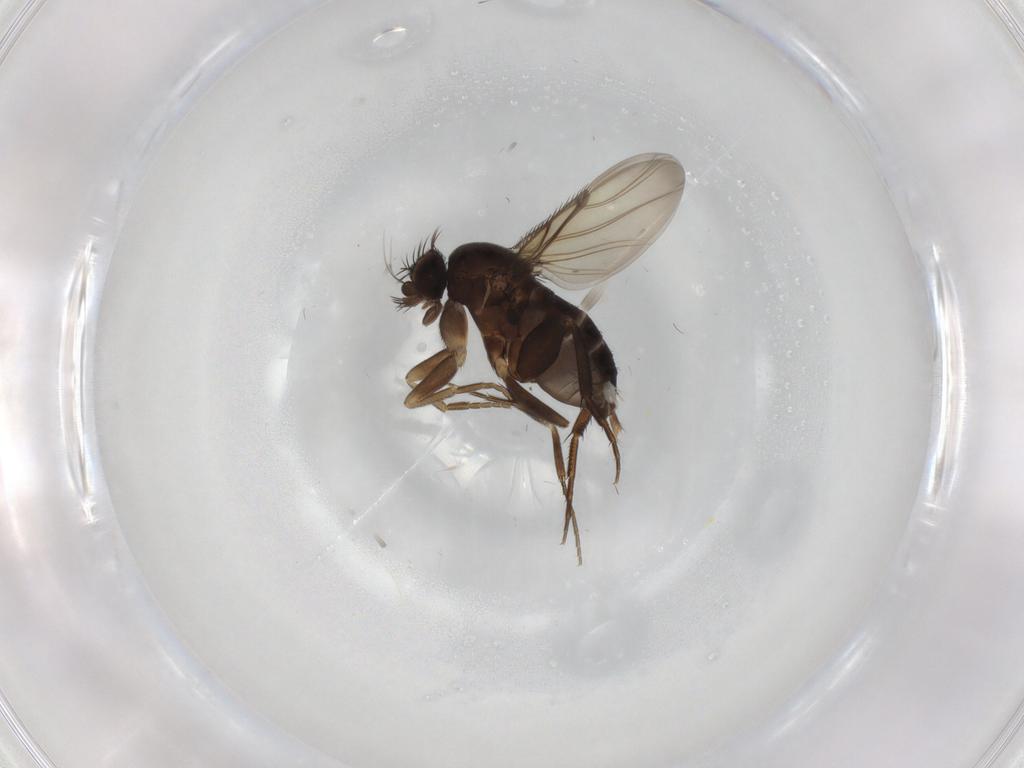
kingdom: Animalia
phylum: Arthropoda
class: Insecta
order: Diptera
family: Phoridae
